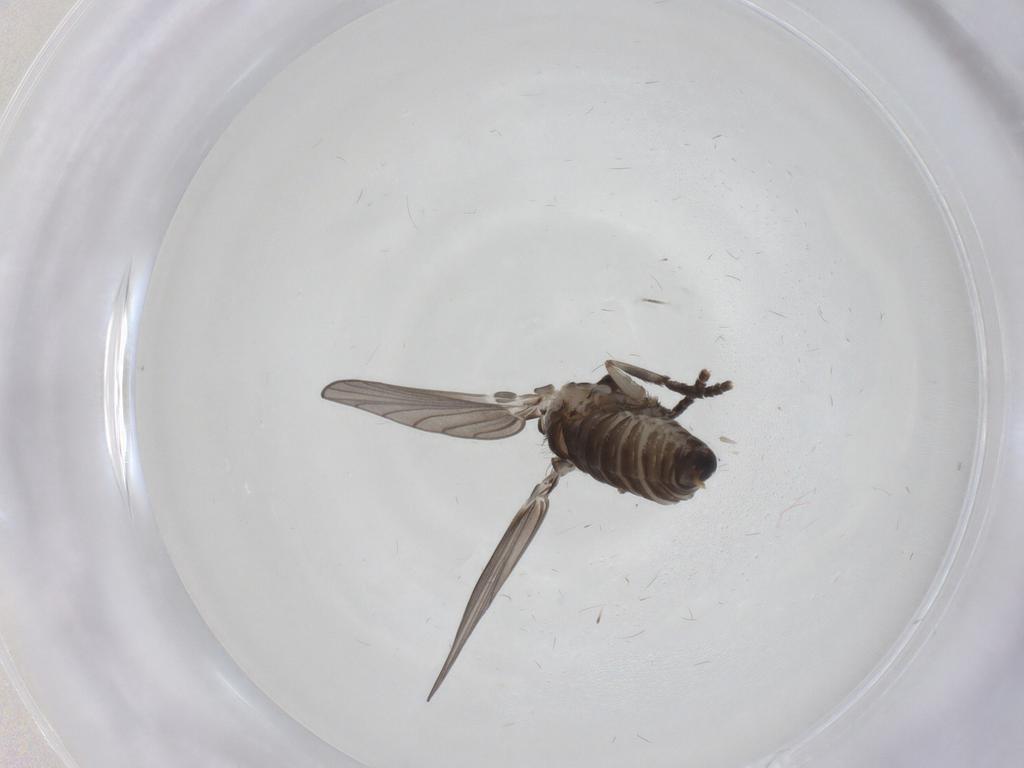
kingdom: Animalia
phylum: Arthropoda
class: Insecta
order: Diptera
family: Psychodidae
